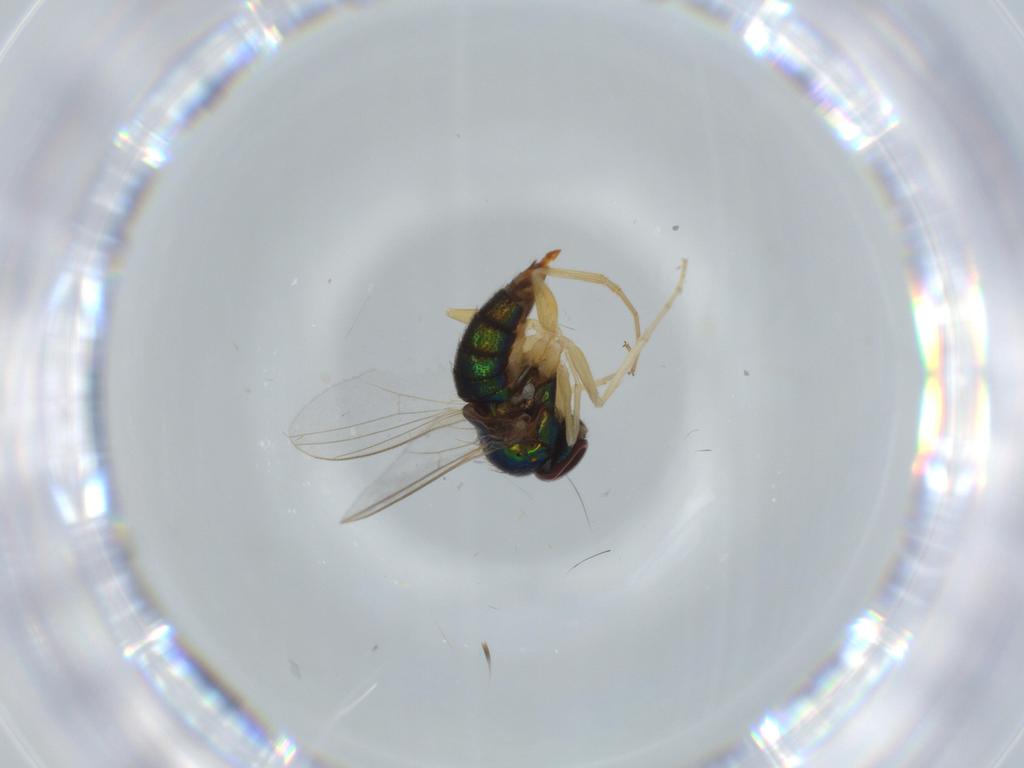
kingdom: Animalia
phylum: Arthropoda
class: Insecta
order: Diptera
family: Dolichopodidae
